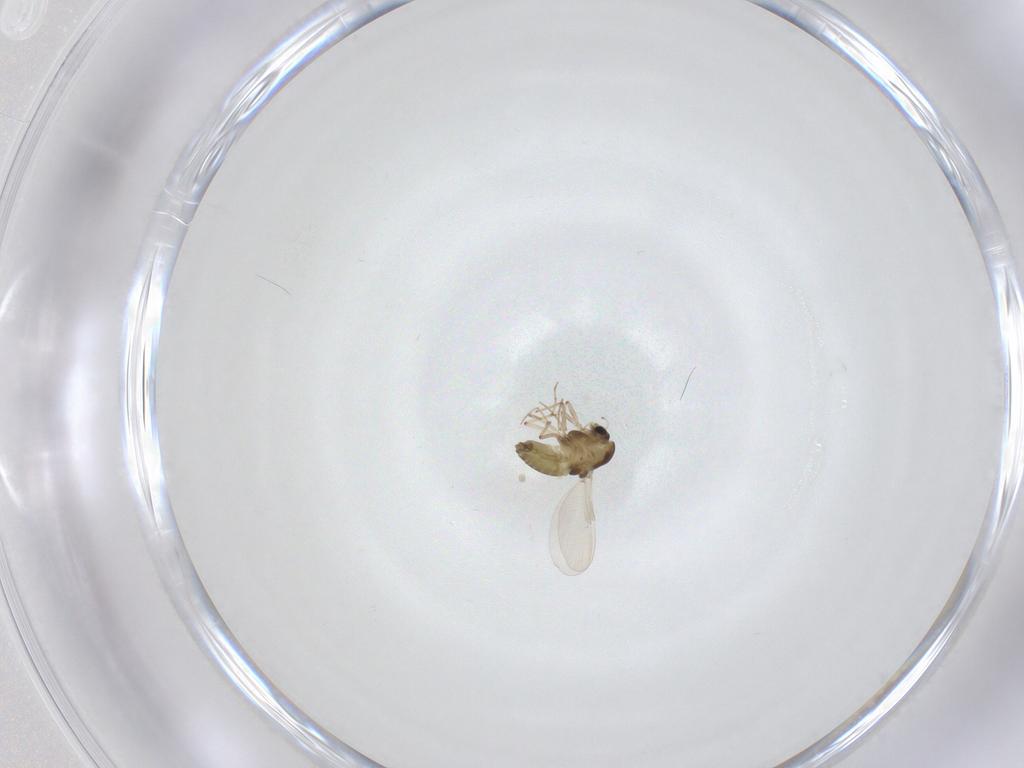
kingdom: Animalia
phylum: Arthropoda
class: Insecta
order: Diptera
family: Chironomidae
